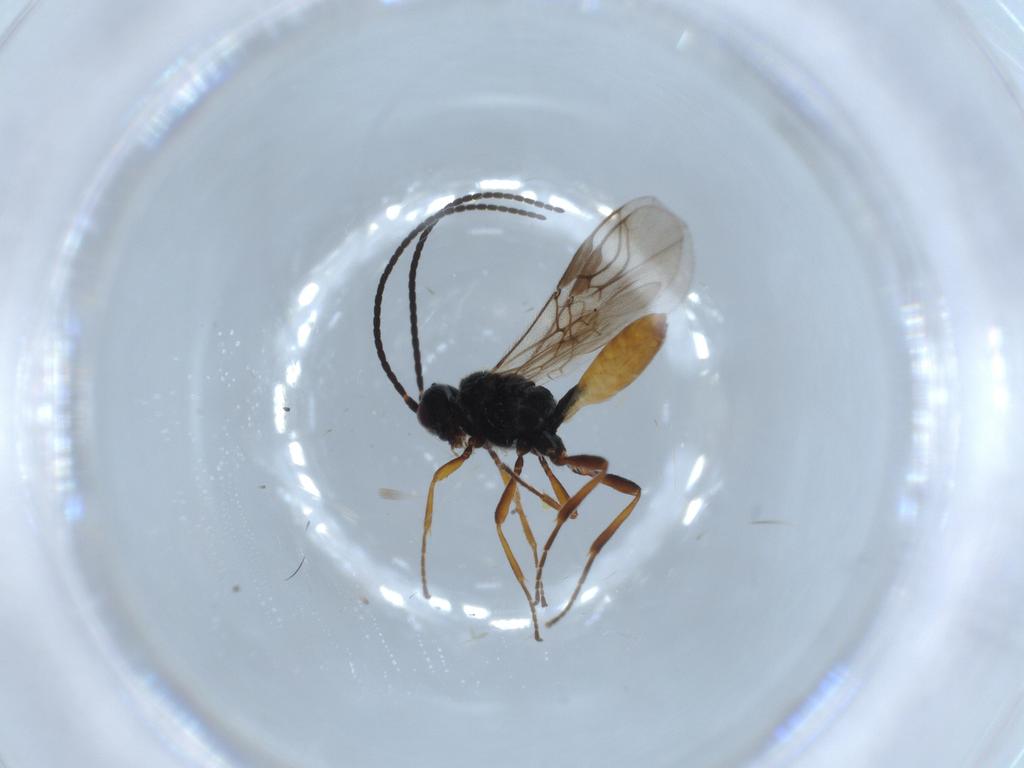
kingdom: Animalia
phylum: Arthropoda
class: Insecta
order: Hymenoptera
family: Braconidae
